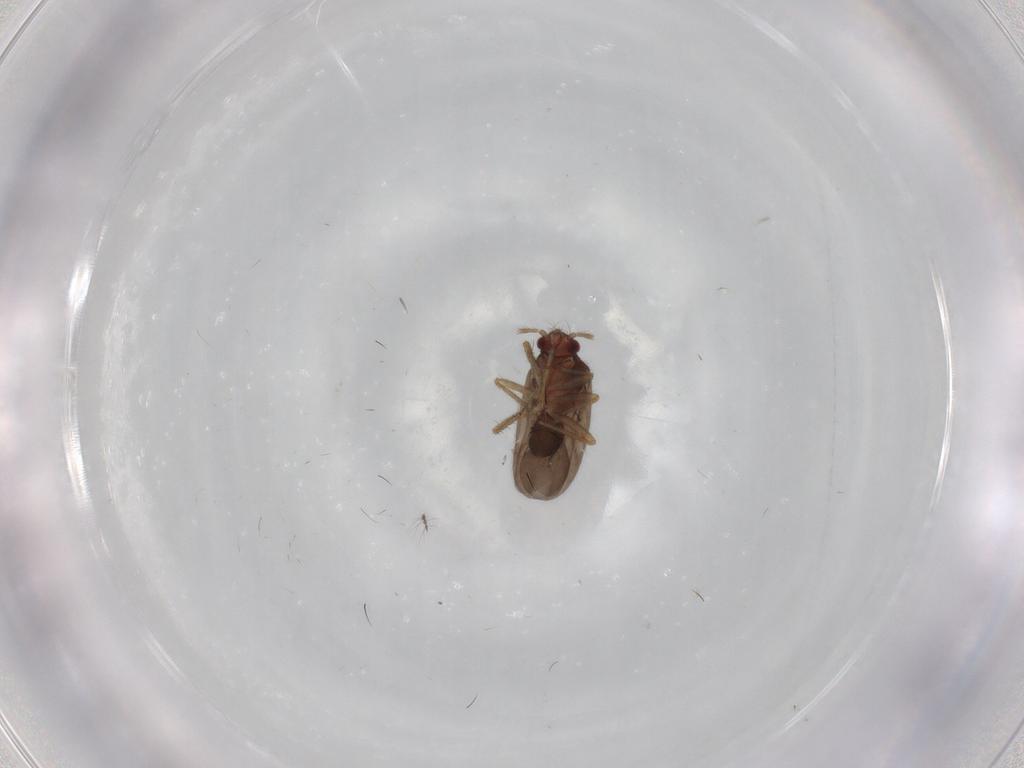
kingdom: Animalia
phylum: Arthropoda
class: Insecta
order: Hemiptera
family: Ceratocombidae
